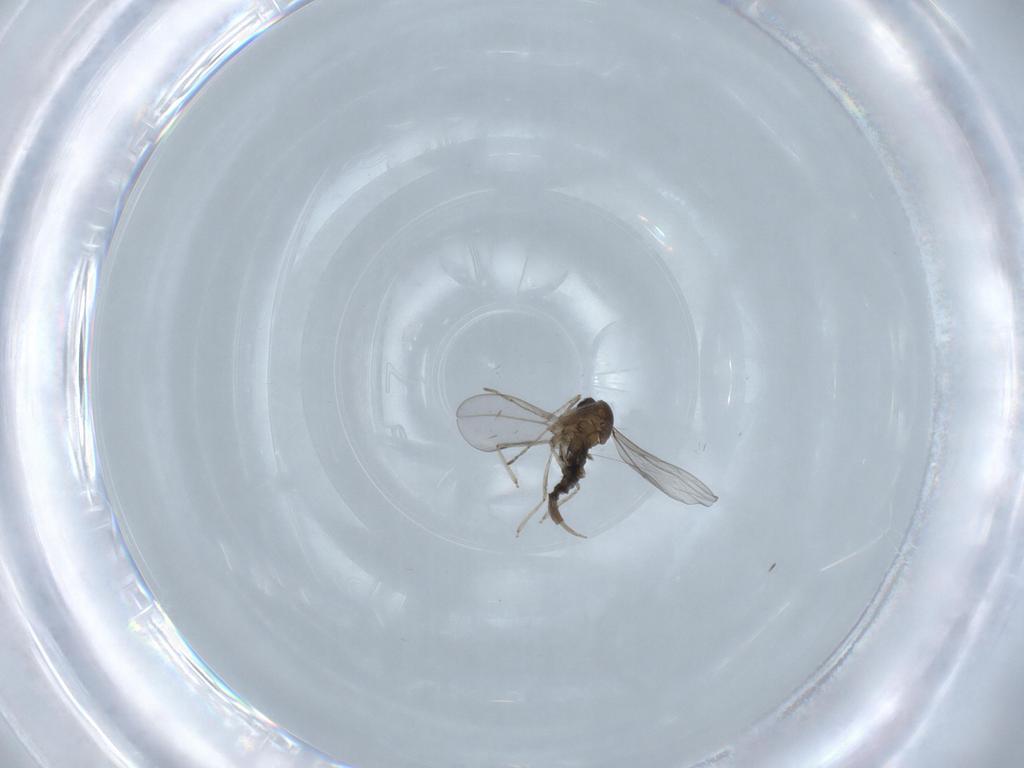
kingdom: Animalia
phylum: Arthropoda
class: Insecta
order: Diptera
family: Cecidomyiidae
